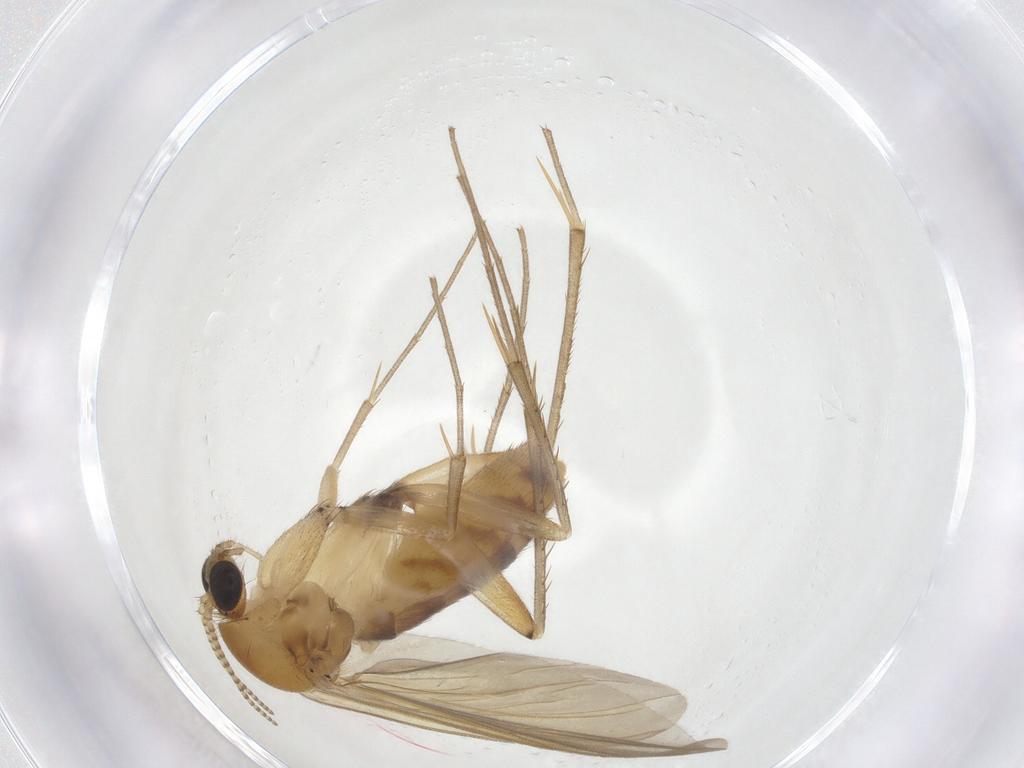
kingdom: Animalia
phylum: Arthropoda
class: Insecta
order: Diptera
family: Mycetophilidae
